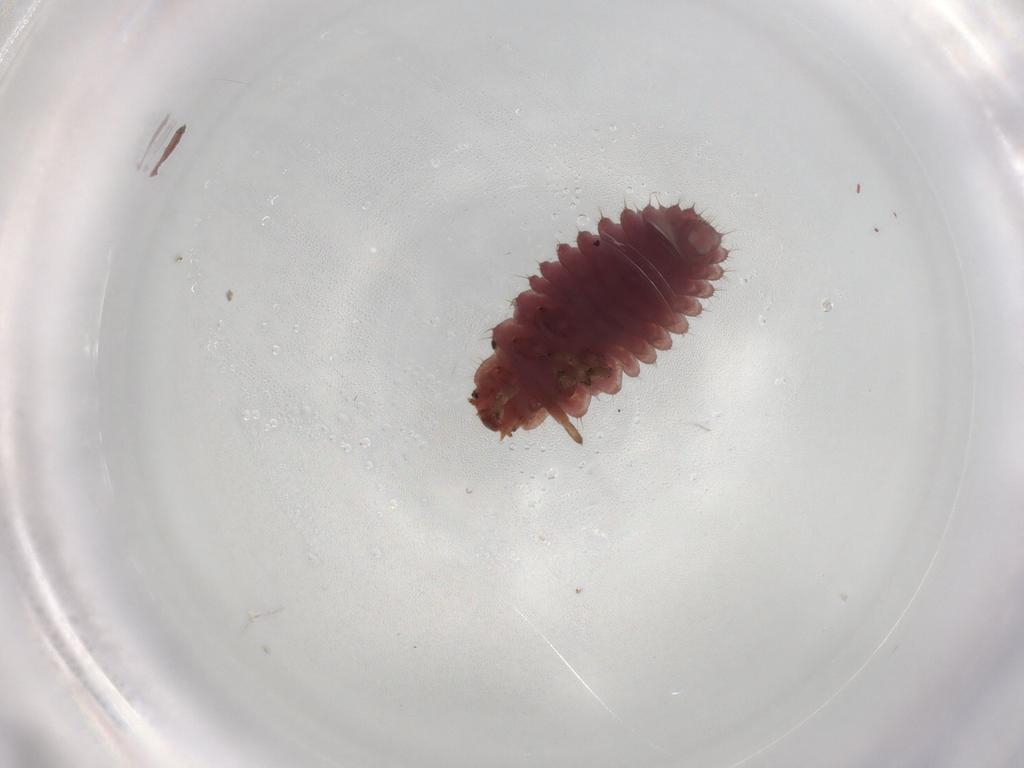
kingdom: Animalia
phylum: Arthropoda
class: Insecta
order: Coleoptera
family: Coccinellidae
